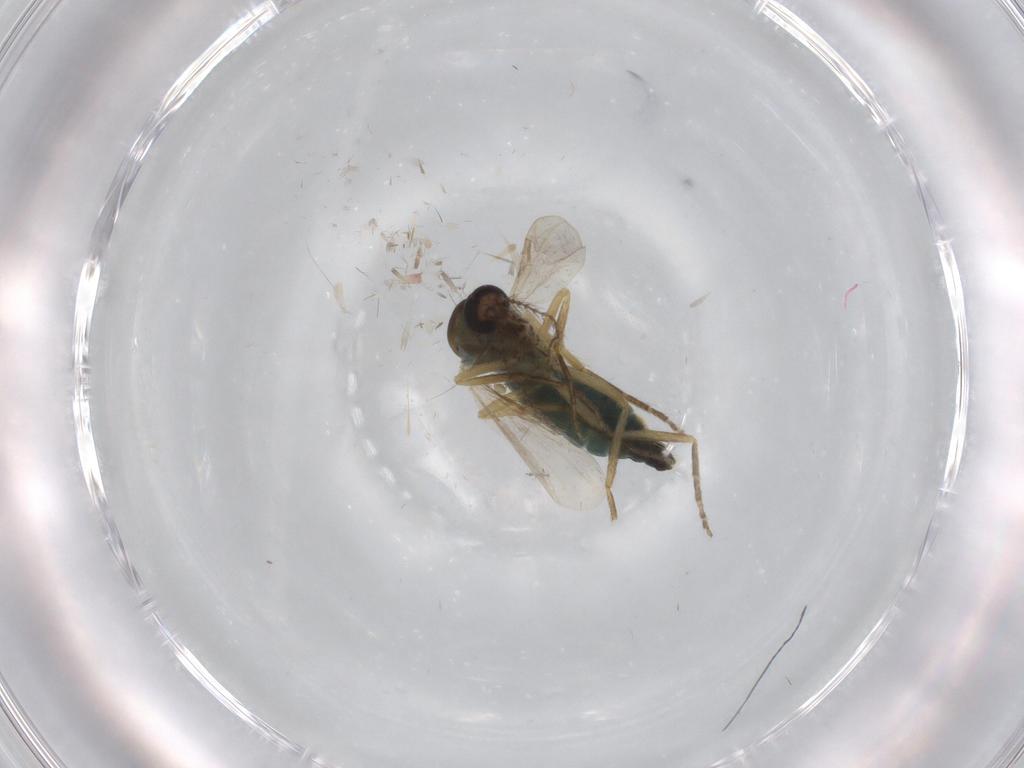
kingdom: Animalia
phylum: Arthropoda
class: Insecta
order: Diptera
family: Ceratopogonidae
